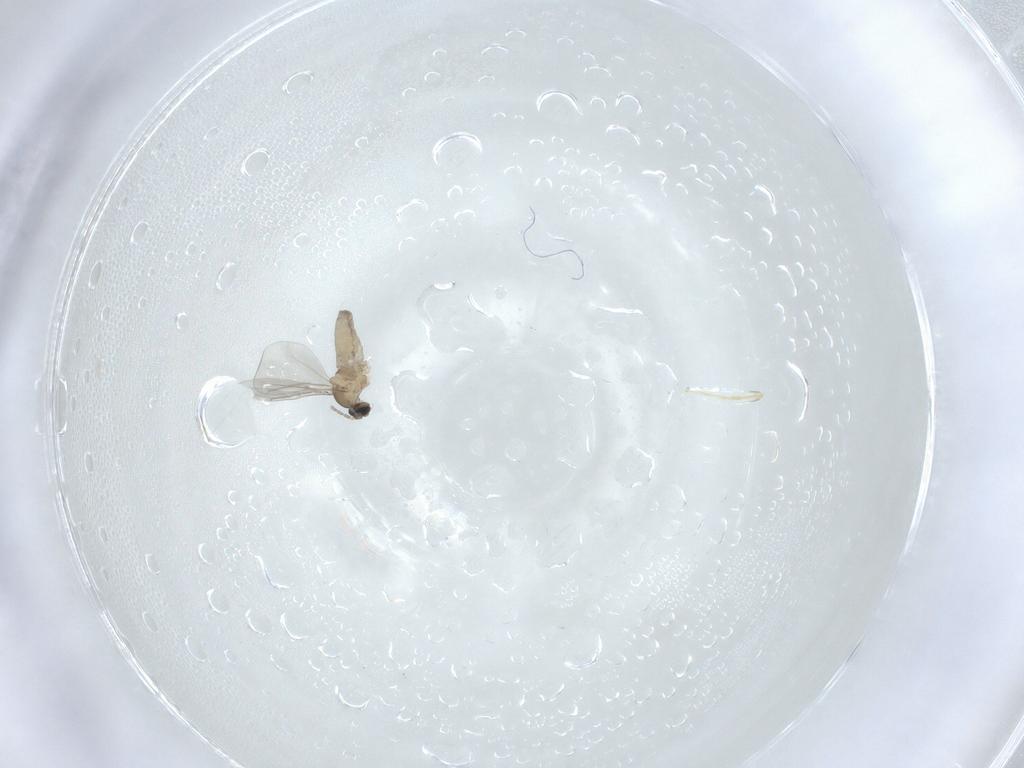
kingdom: Animalia
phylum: Arthropoda
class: Insecta
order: Diptera
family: Cecidomyiidae
